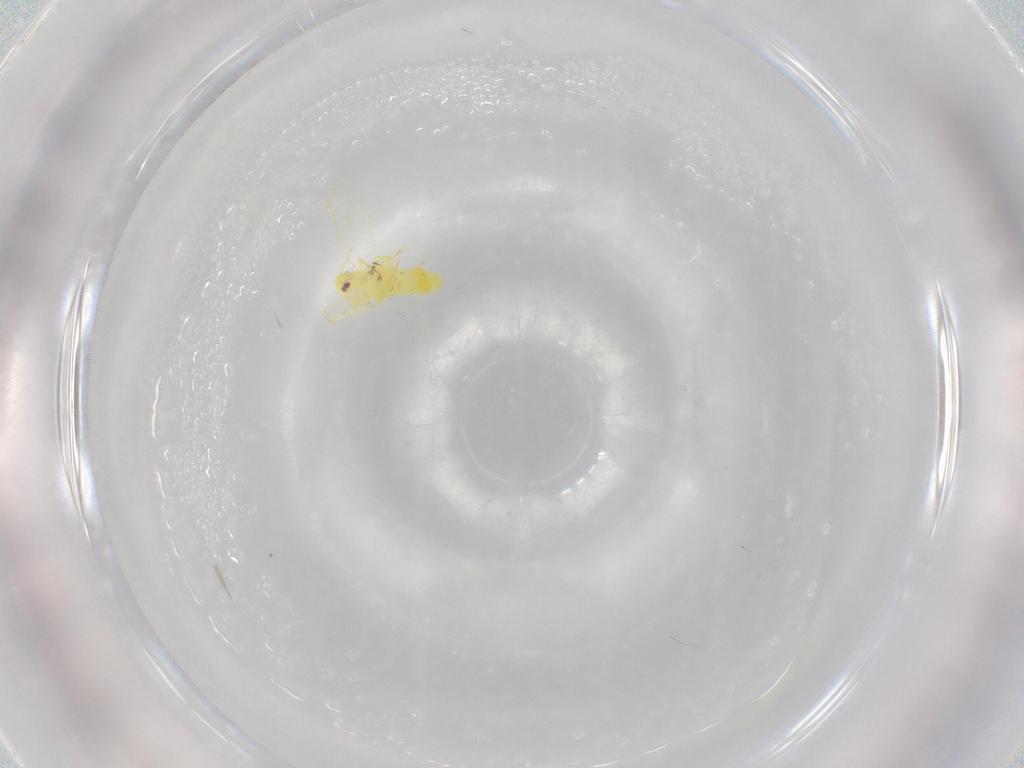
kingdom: Animalia
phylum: Arthropoda
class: Insecta
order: Hemiptera
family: Aleyrodidae
